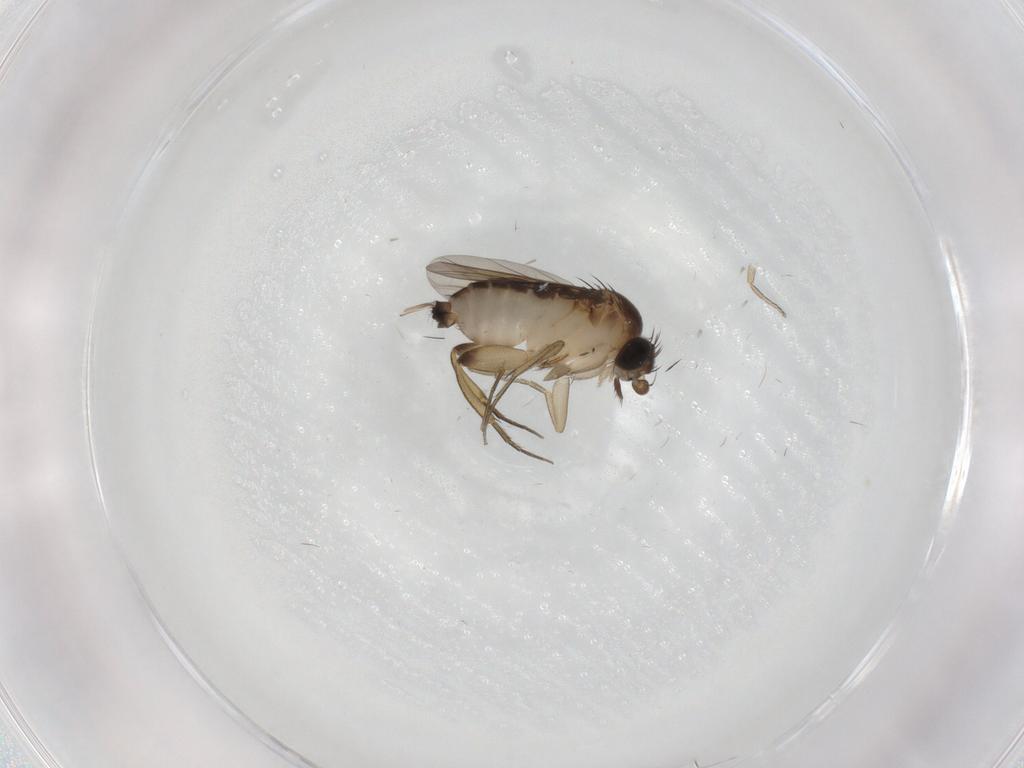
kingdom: Animalia
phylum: Arthropoda
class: Insecta
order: Diptera
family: Phoridae
